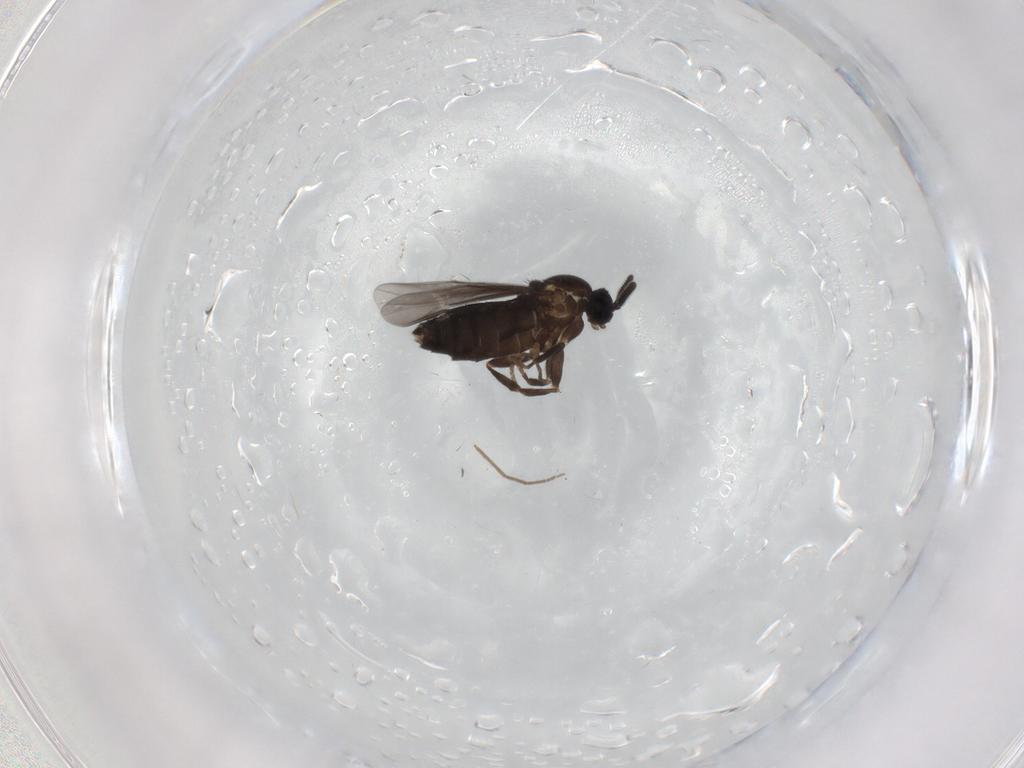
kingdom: Animalia
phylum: Arthropoda
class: Insecta
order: Diptera
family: Scatopsidae
